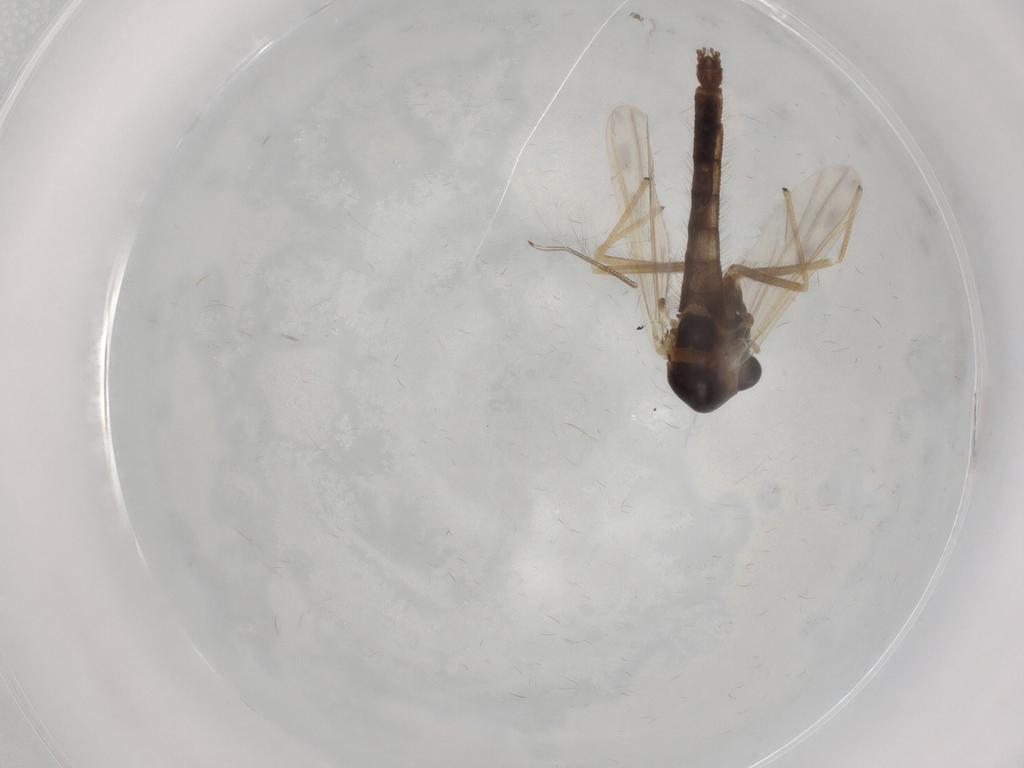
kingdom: Animalia
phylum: Arthropoda
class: Insecta
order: Diptera
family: Chironomidae
